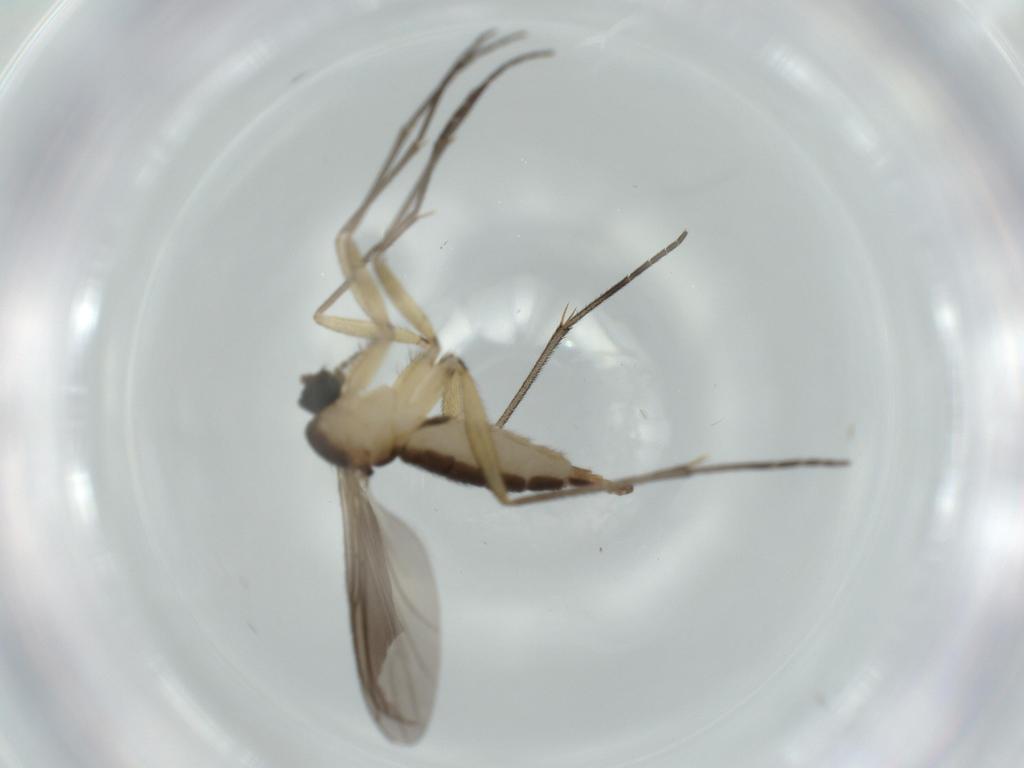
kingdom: Animalia
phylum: Arthropoda
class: Insecta
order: Diptera
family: Sciaridae
